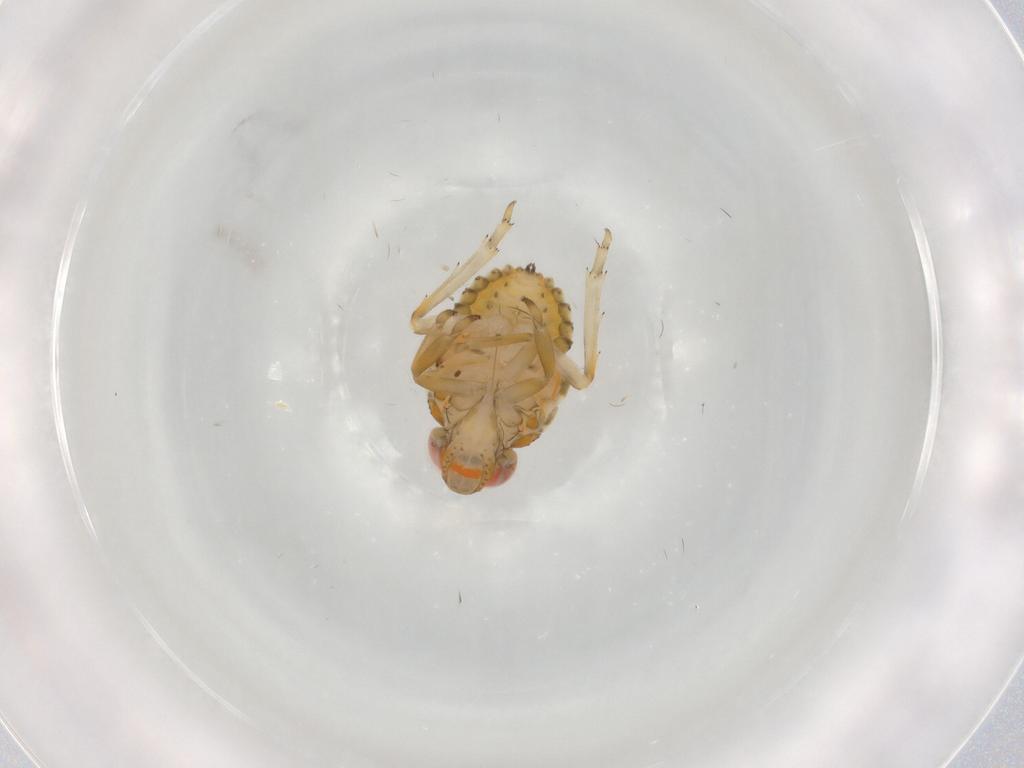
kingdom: Animalia
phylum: Arthropoda
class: Insecta
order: Hemiptera
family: Issidae
